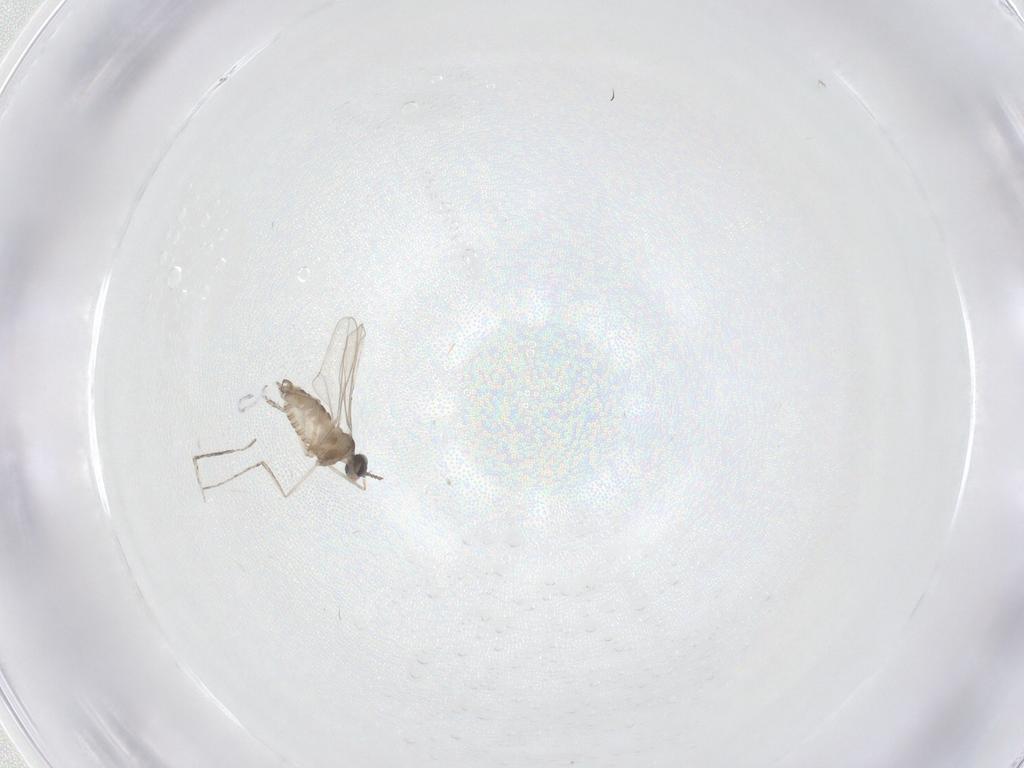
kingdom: Animalia
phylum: Arthropoda
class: Insecta
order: Diptera
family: Cecidomyiidae
